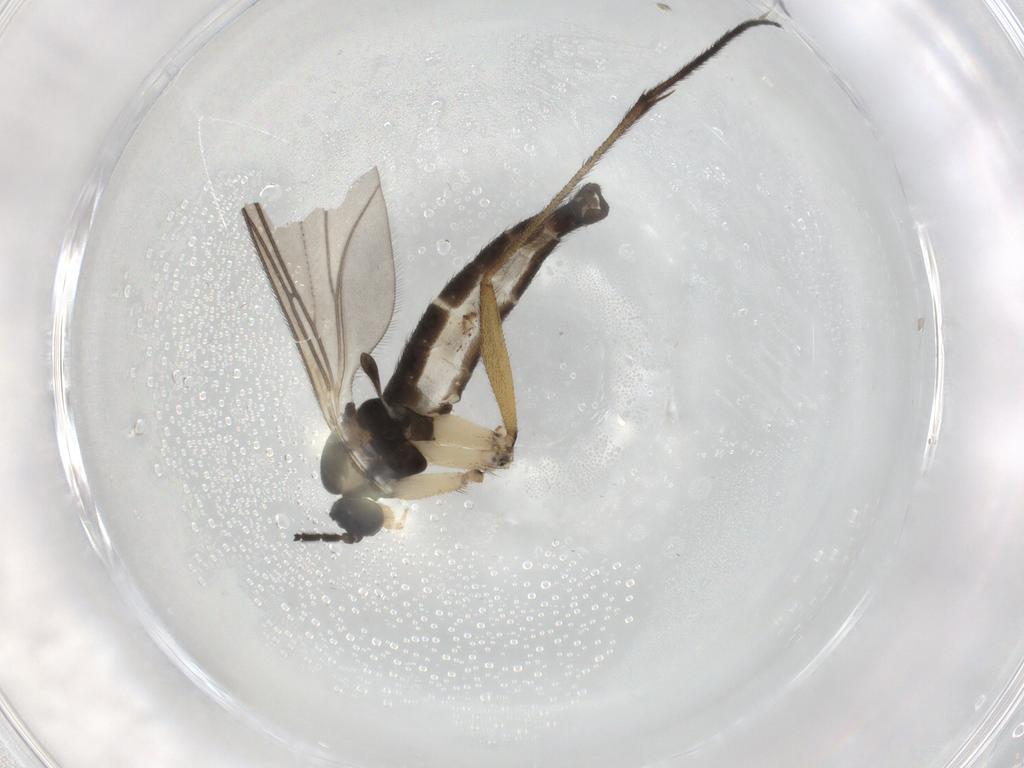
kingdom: Animalia
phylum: Arthropoda
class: Insecta
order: Diptera
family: Sciaridae
